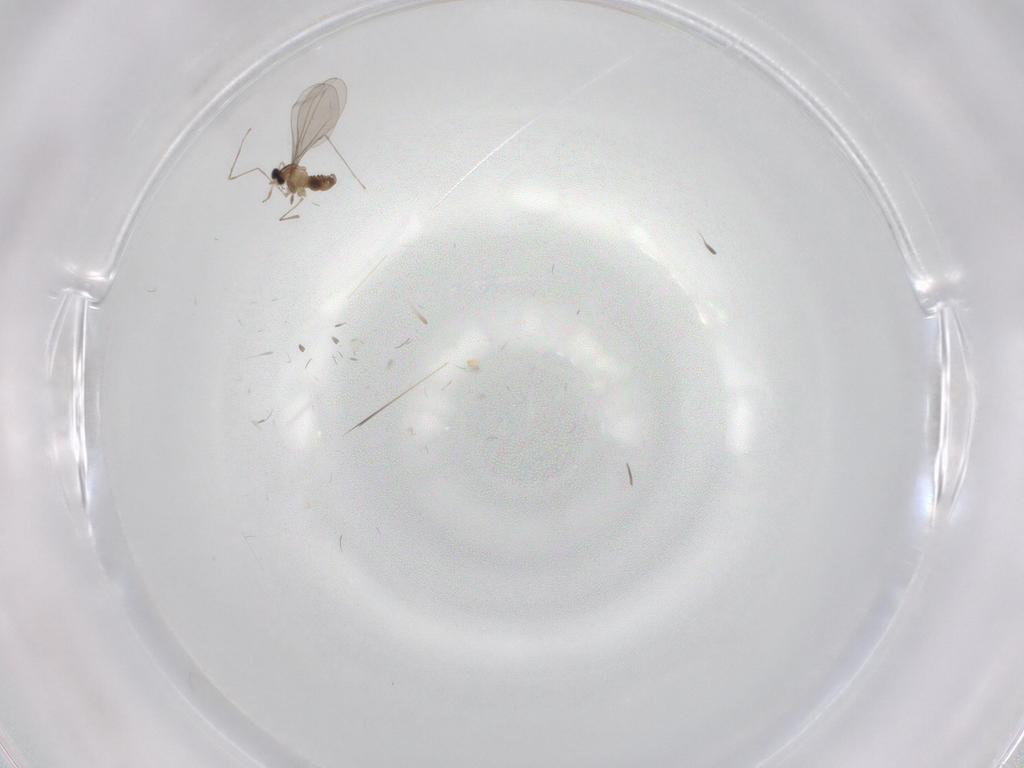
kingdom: Animalia
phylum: Arthropoda
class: Insecta
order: Diptera
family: Cecidomyiidae
